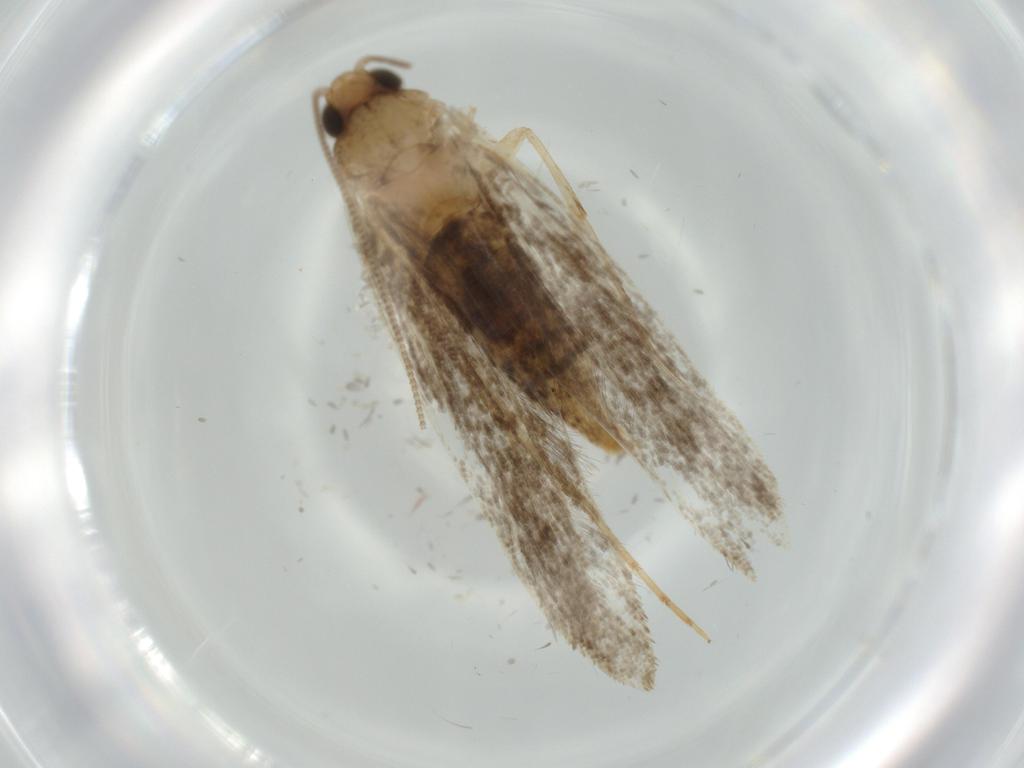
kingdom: Animalia
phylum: Arthropoda
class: Insecta
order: Lepidoptera
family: Tineidae
